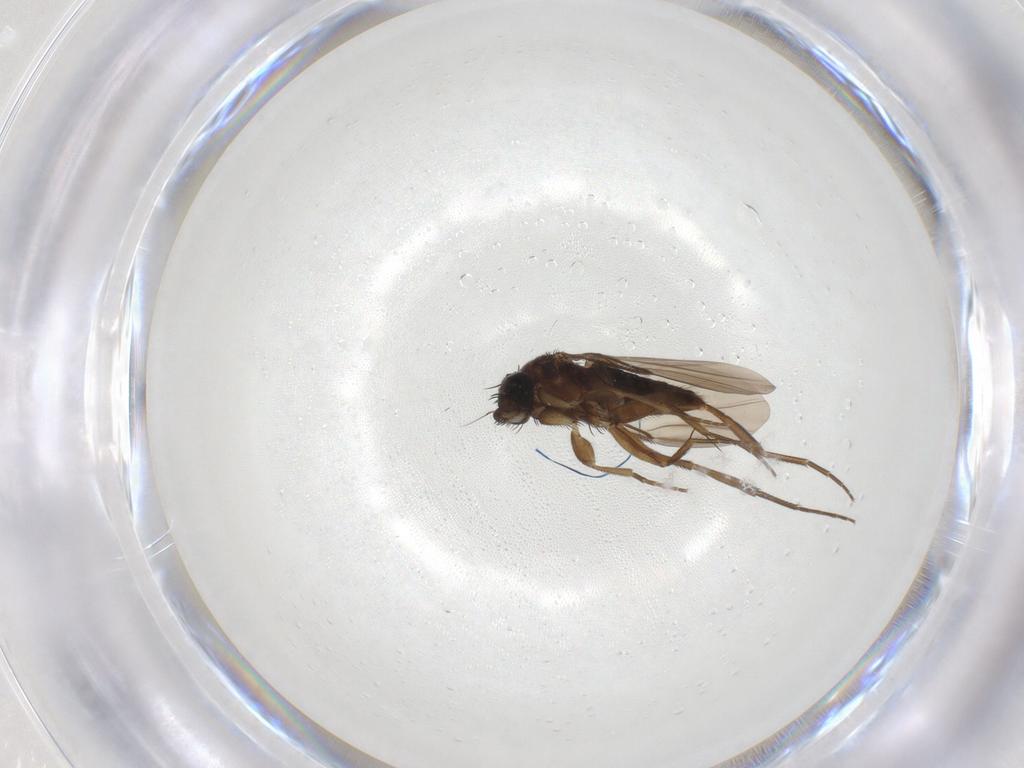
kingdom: Animalia
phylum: Arthropoda
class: Insecta
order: Diptera
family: Phoridae
